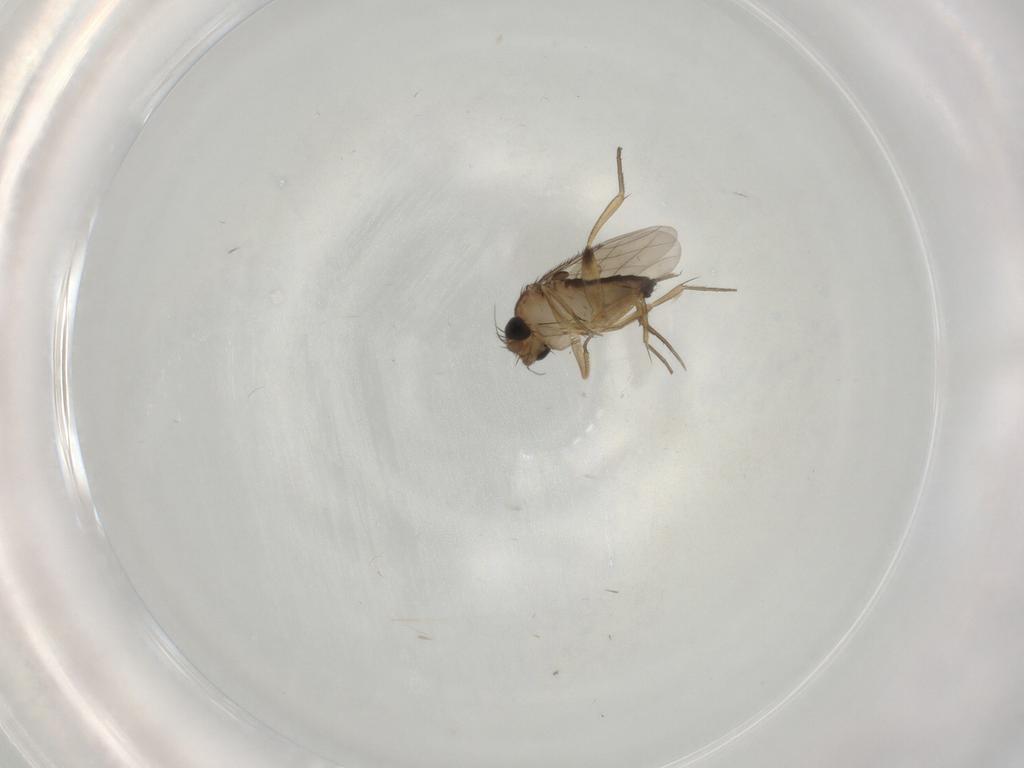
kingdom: Animalia
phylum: Arthropoda
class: Insecta
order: Diptera
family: Phoridae
